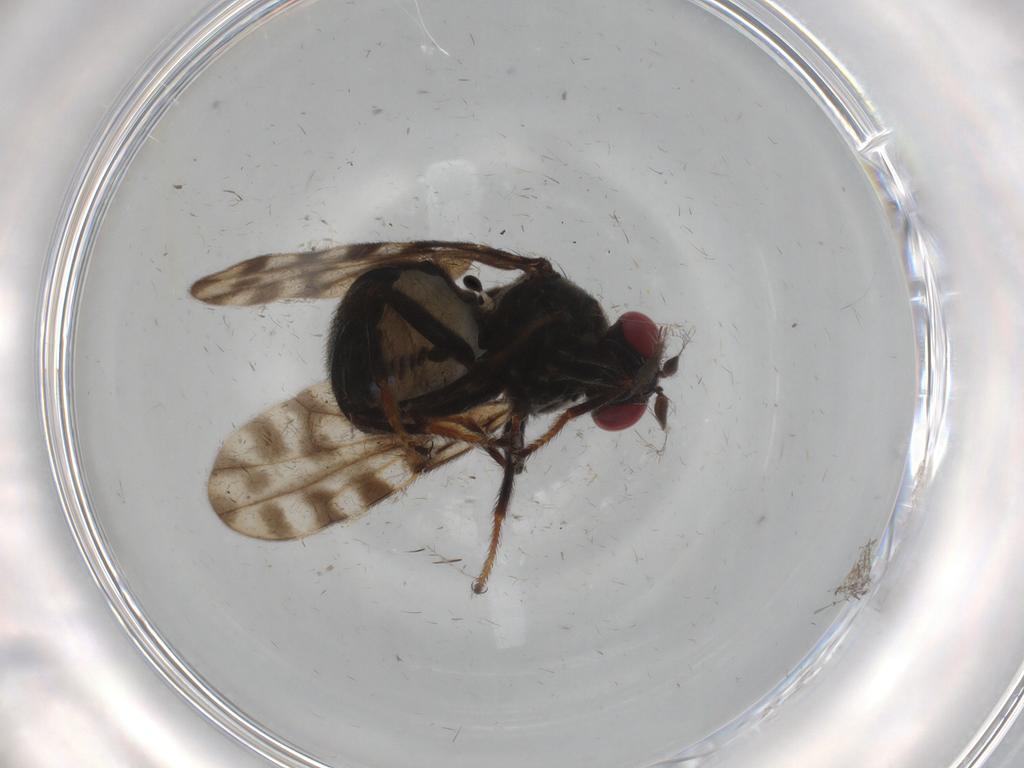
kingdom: Animalia
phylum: Arthropoda
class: Insecta
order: Diptera
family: Ephydridae
